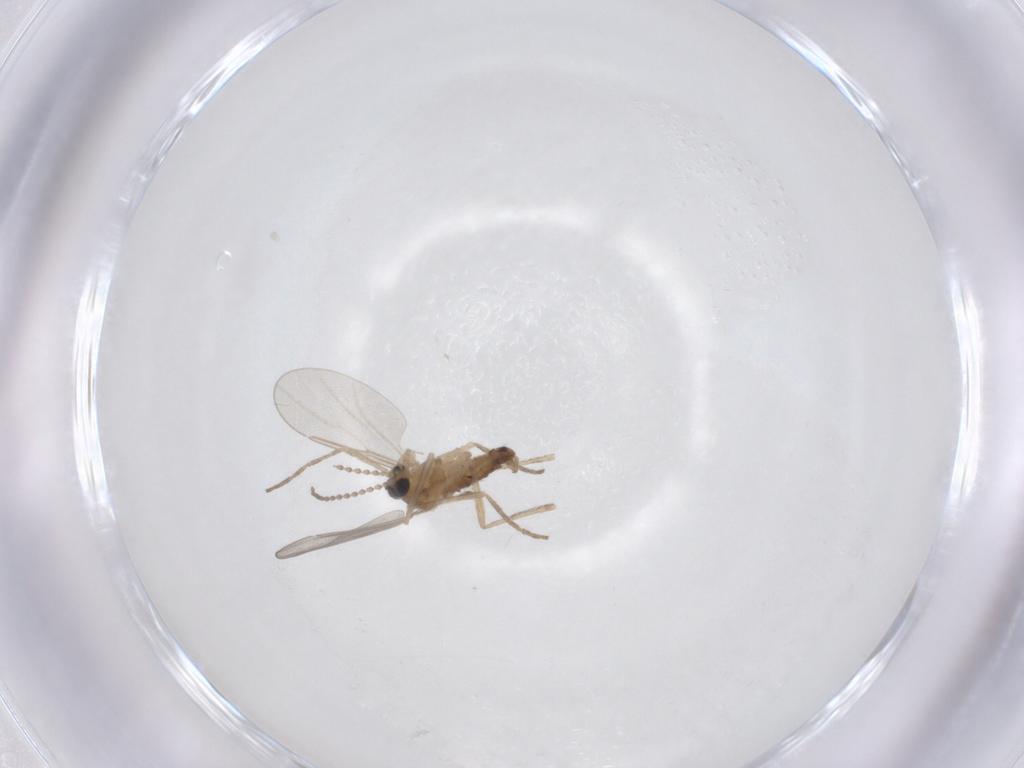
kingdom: Animalia
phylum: Arthropoda
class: Insecta
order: Diptera
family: Cecidomyiidae
